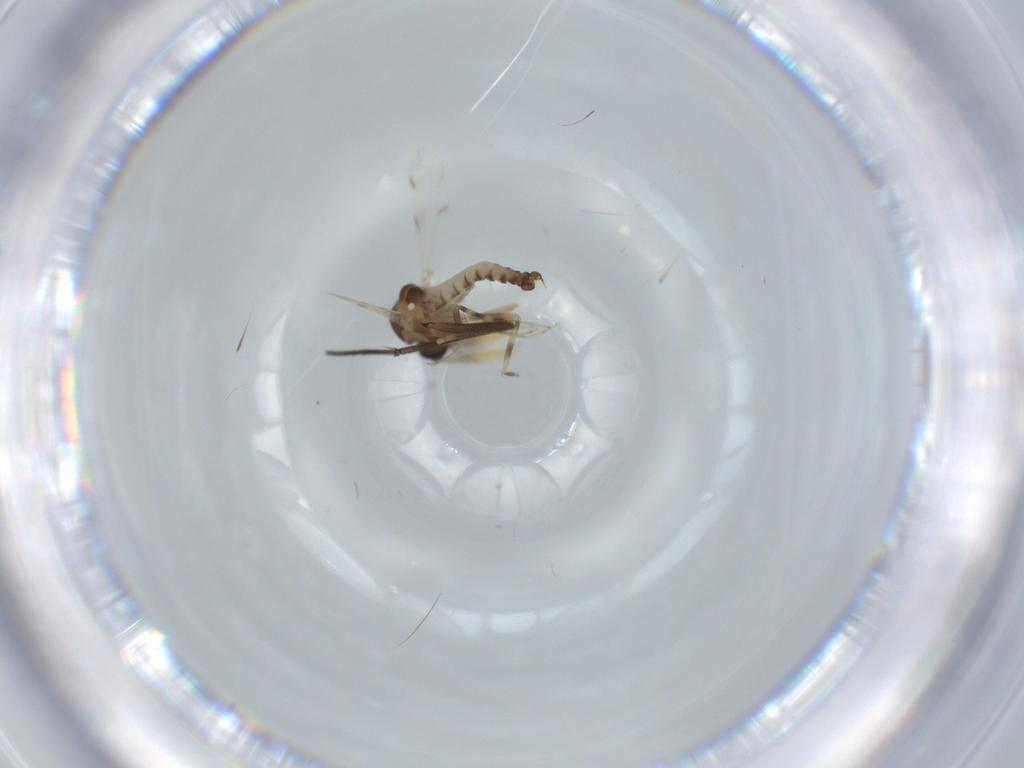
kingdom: Animalia
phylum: Arthropoda
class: Insecta
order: Diptera
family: Ceratopogonidae
